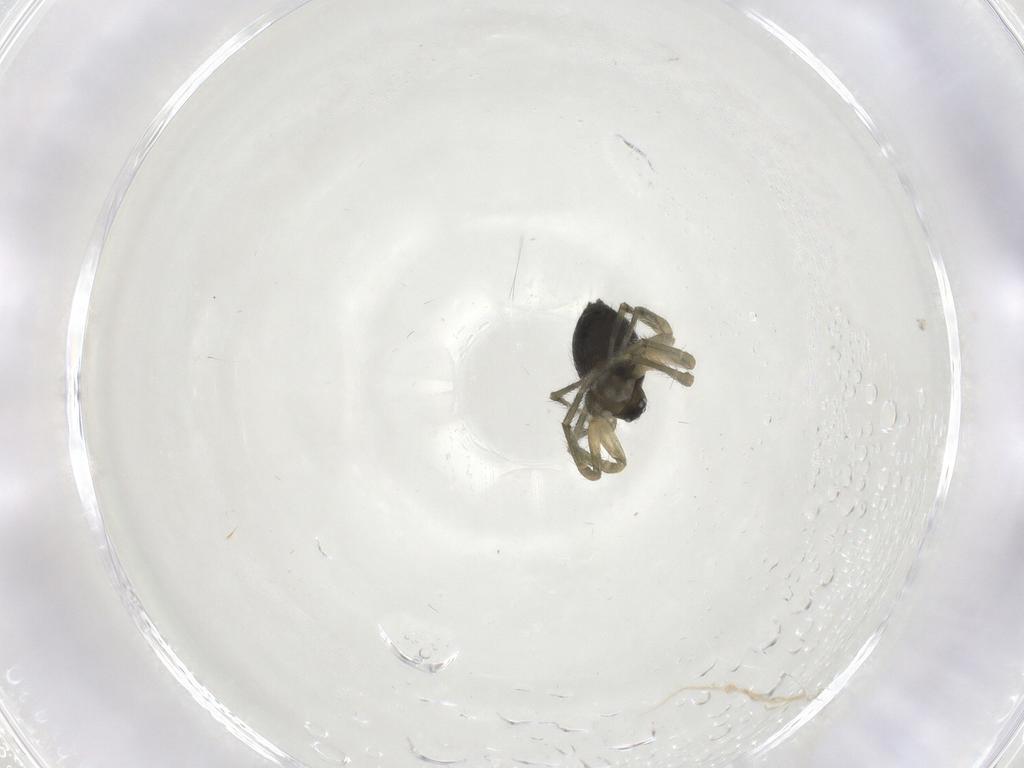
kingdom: Animalia
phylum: Arthropoda
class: Arachnida
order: Araneae
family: Linyphiidae
